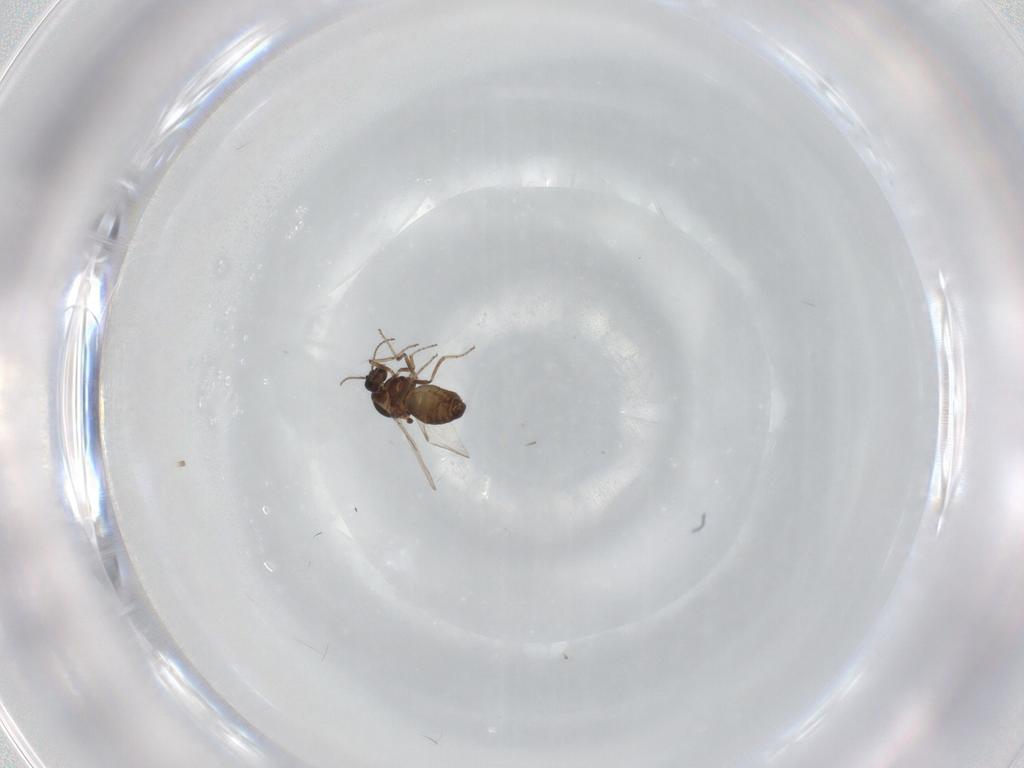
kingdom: Animalia
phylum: Arthropoda
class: Insecta
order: Diptera
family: Ceratopogonidae
